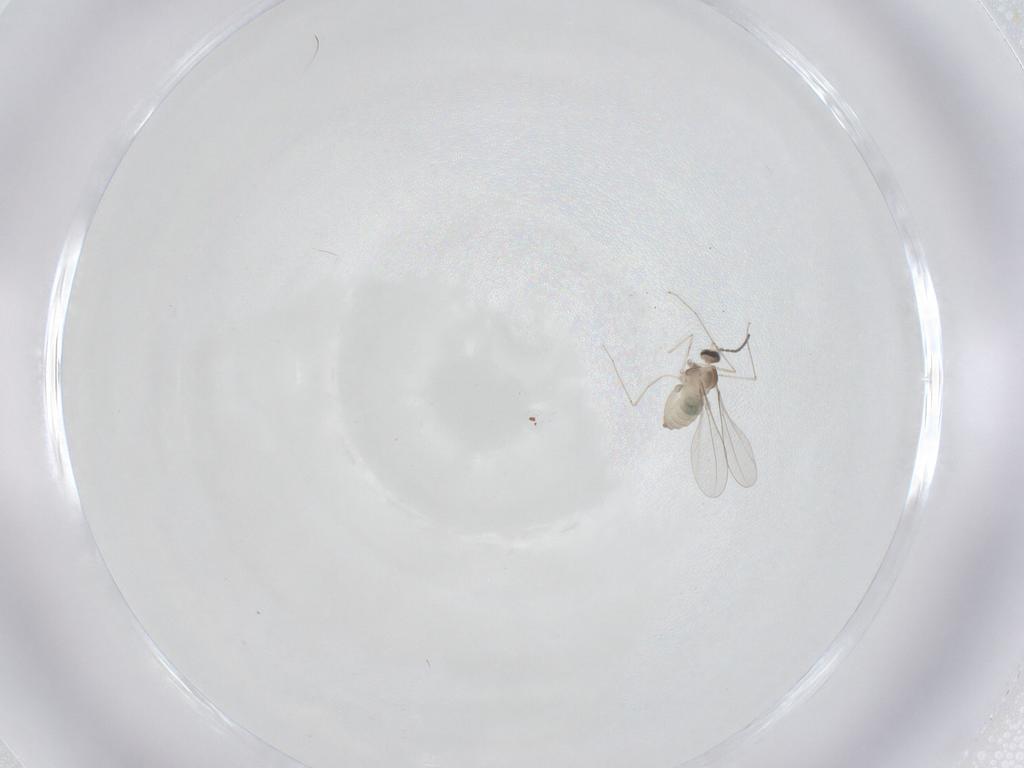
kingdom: Animalia
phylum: Arthropoda
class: Insecta
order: Diptera
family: Cecidomyiidae
